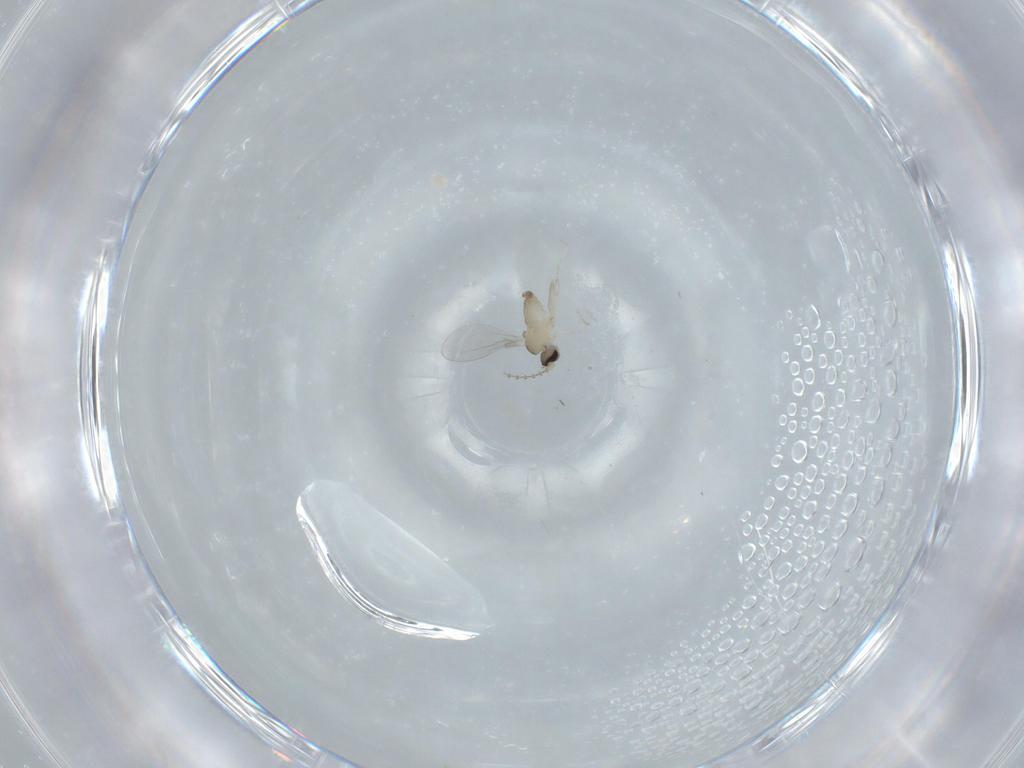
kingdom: Animalia
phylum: Arthropoda
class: Insecta
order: Diptera
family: Cecidomyiidae
